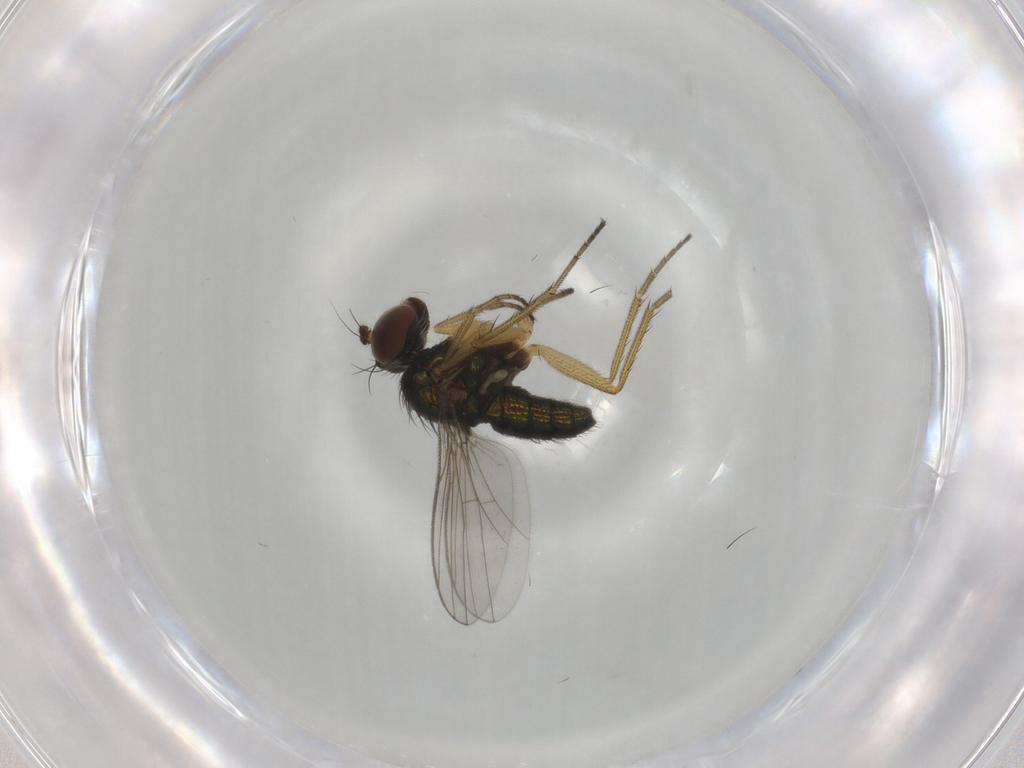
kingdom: Animalia
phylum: Arthropoda
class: Insecta
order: Diptera
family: Dolichopodidae
